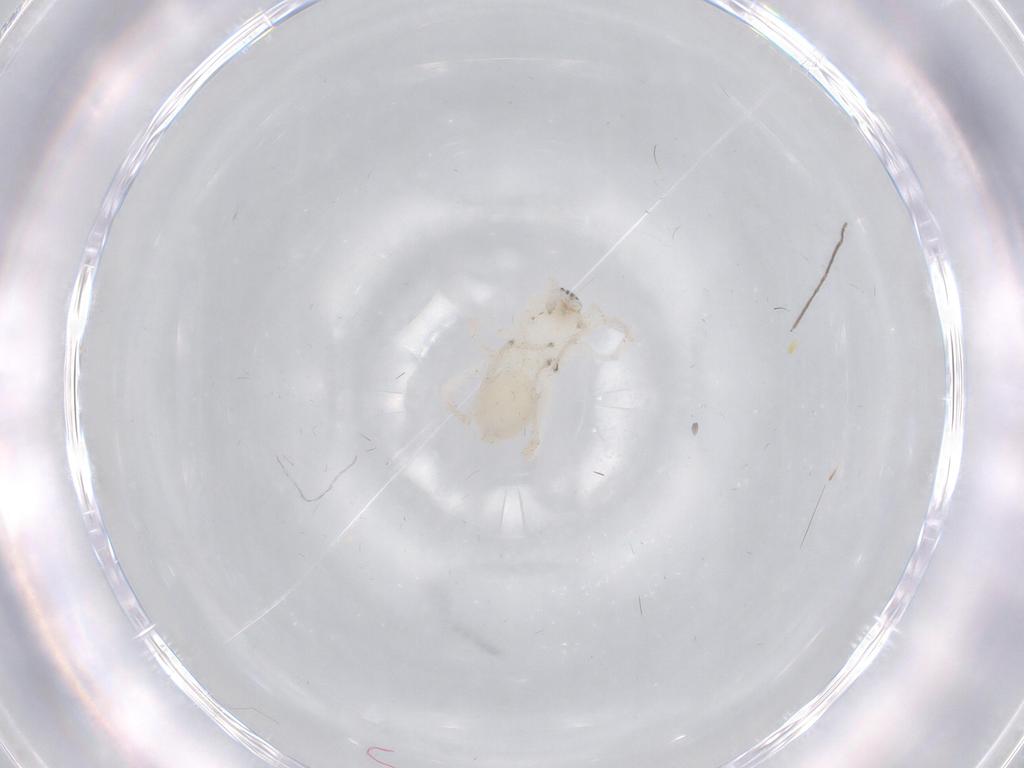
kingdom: Animalia
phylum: Arthropoda
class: Arachnida
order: Araneae
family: Anyphaenidae
